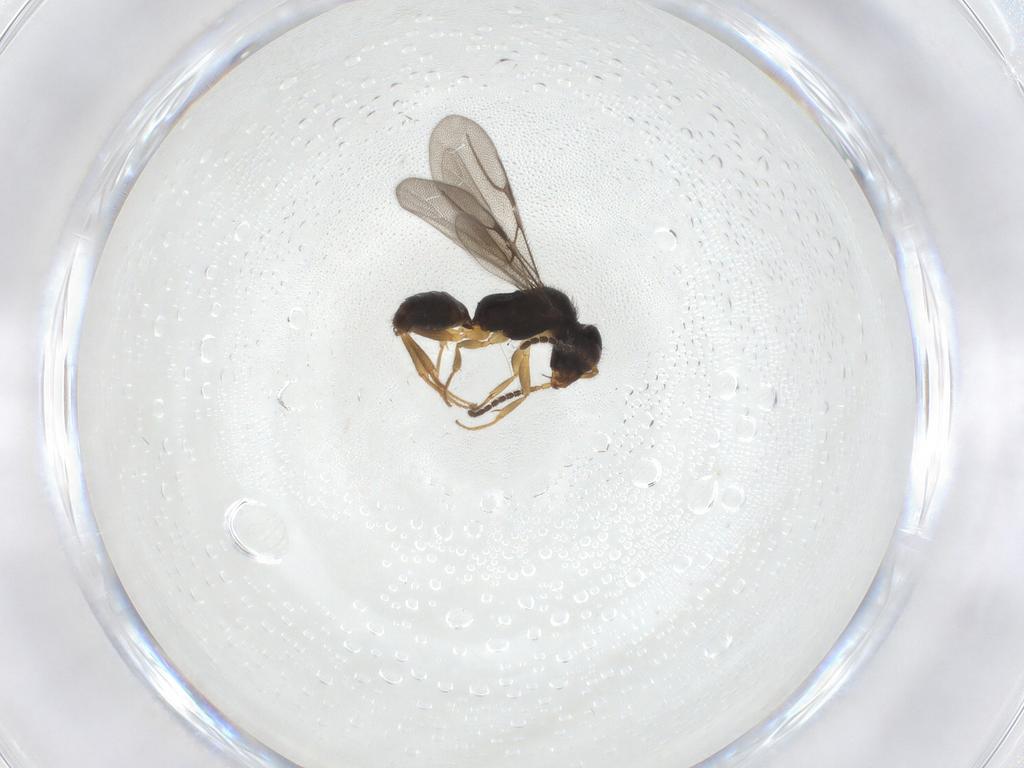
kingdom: Animalia
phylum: Arthropoda
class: Insecta
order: Hymenoptera
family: Bethylidae
